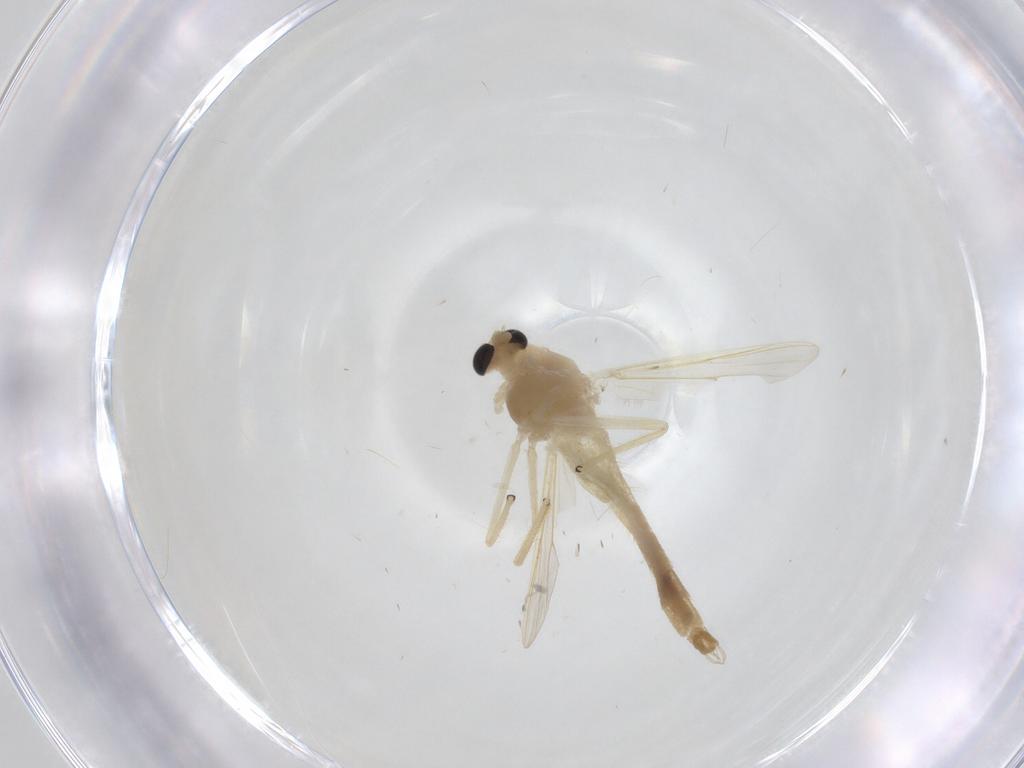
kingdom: Animalia
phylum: Arthropoda
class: Insecta
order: Diptera
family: Chironomidae
